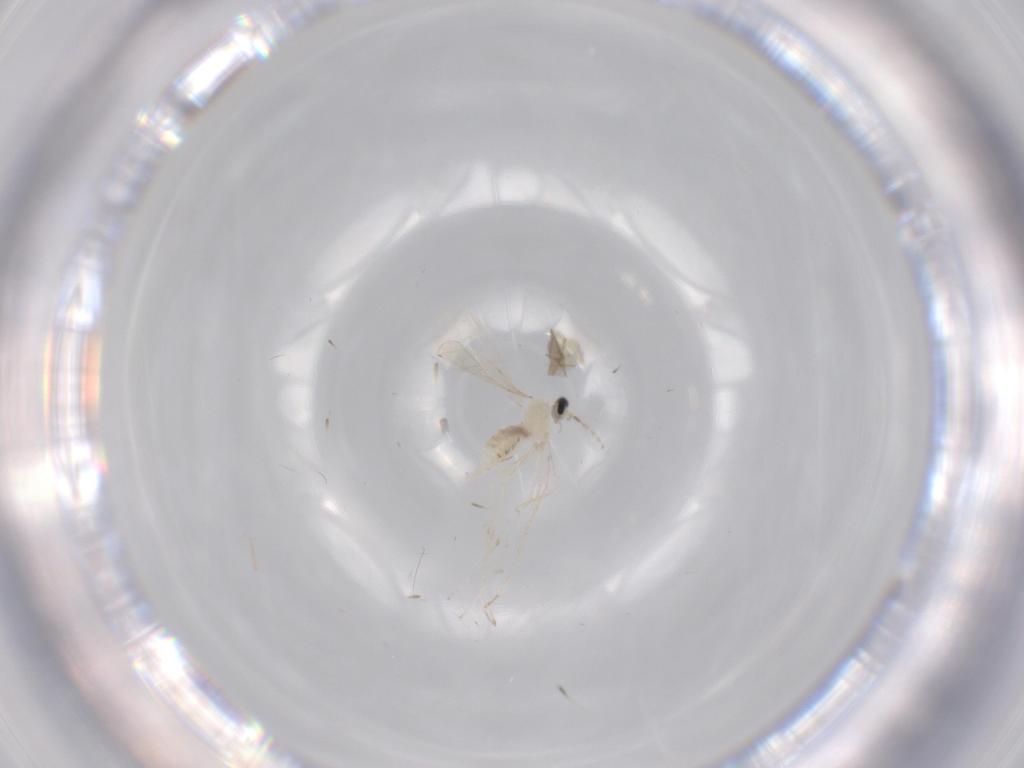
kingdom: Animalia
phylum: Arthropoda
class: Insecta
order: Diptera
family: Cecidomyiidae
